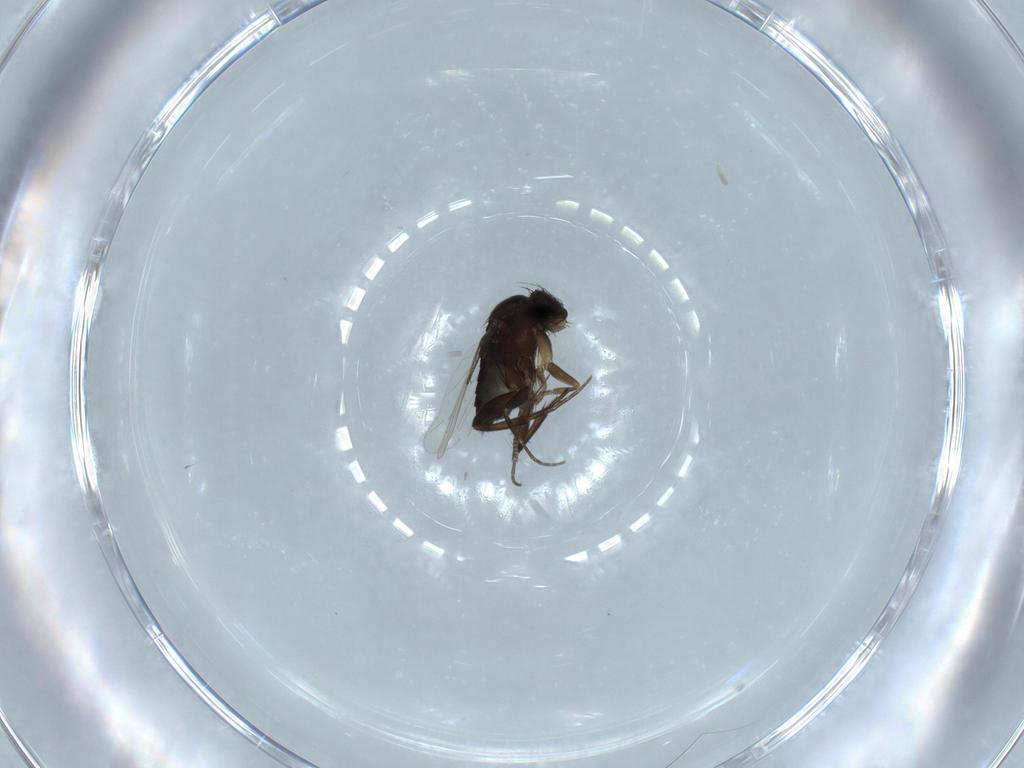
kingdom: Animalia
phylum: Arthropoda
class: Insecta
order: Diptera
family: Phoridae
